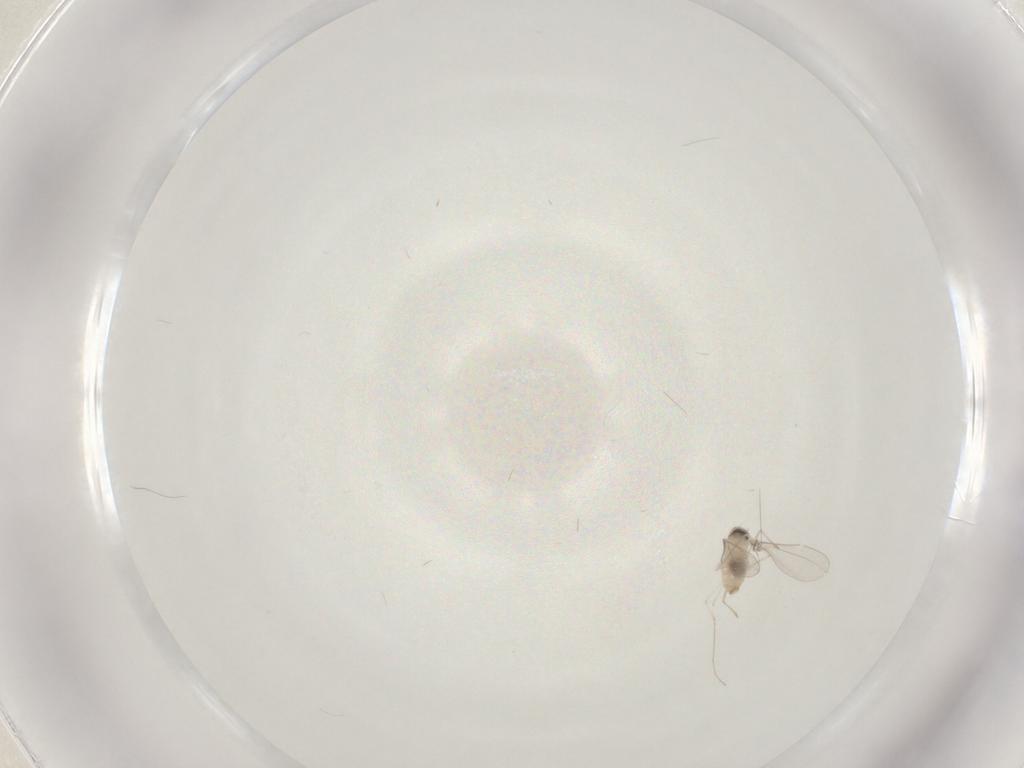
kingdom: Animalia
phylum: Arthropoda
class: Insecta
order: Diptera
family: Cecidomyiidae
